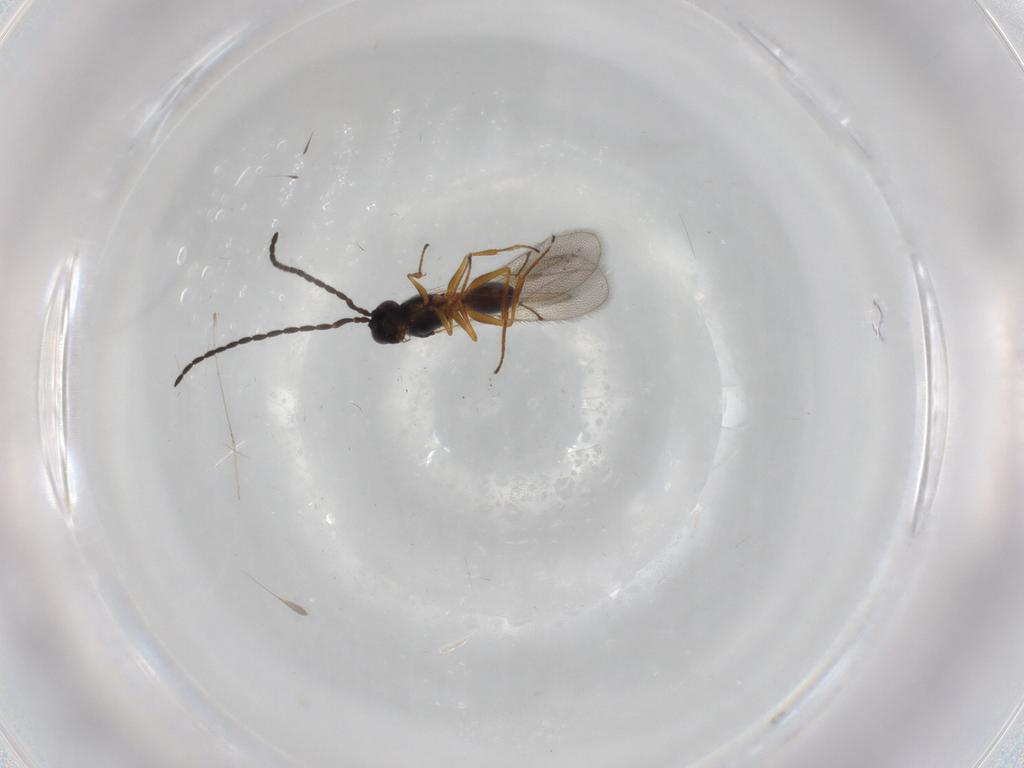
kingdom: Animalia
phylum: Arthropoda
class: Insecta
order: Hymenoptera
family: Figitidae
